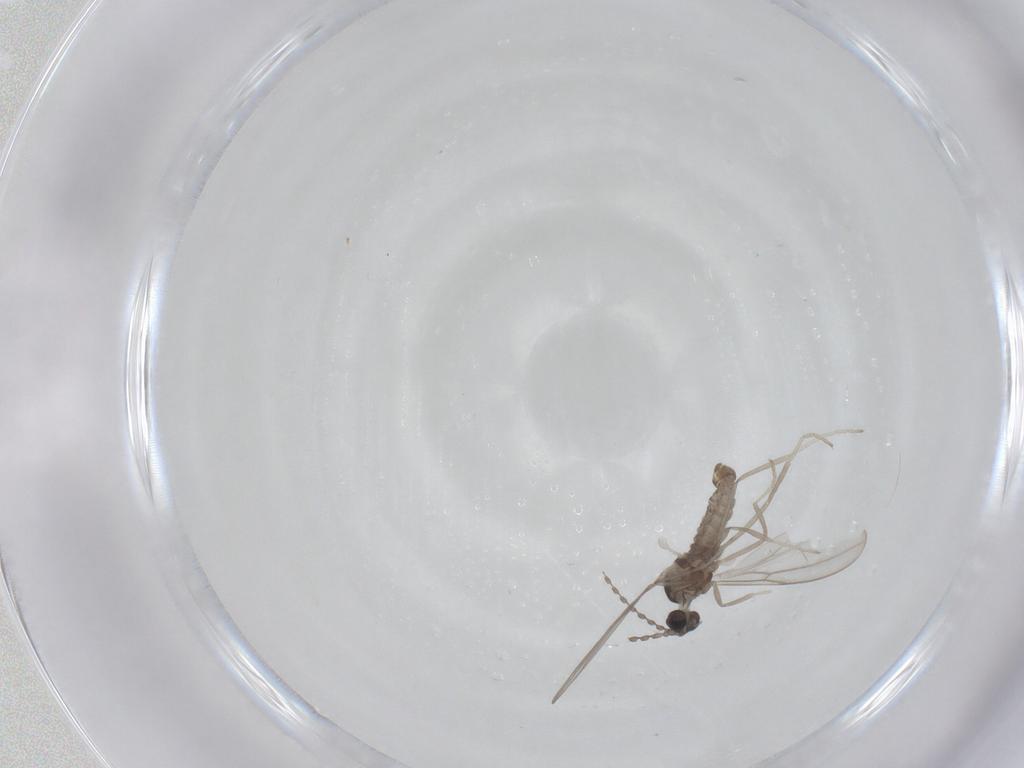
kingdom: Animalia
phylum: Arthropoda
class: Insecta
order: Diptera
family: Cecidomyiidae
